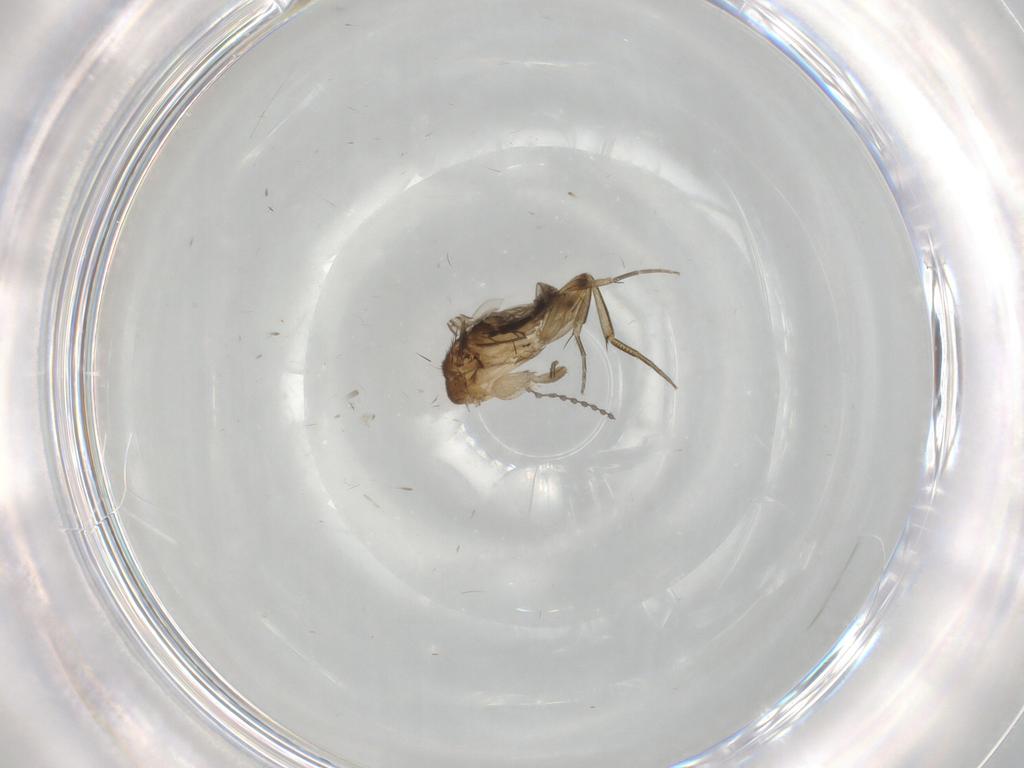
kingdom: Animalia
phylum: Arthropoda
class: Insecta
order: Diptera
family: Phoridae
